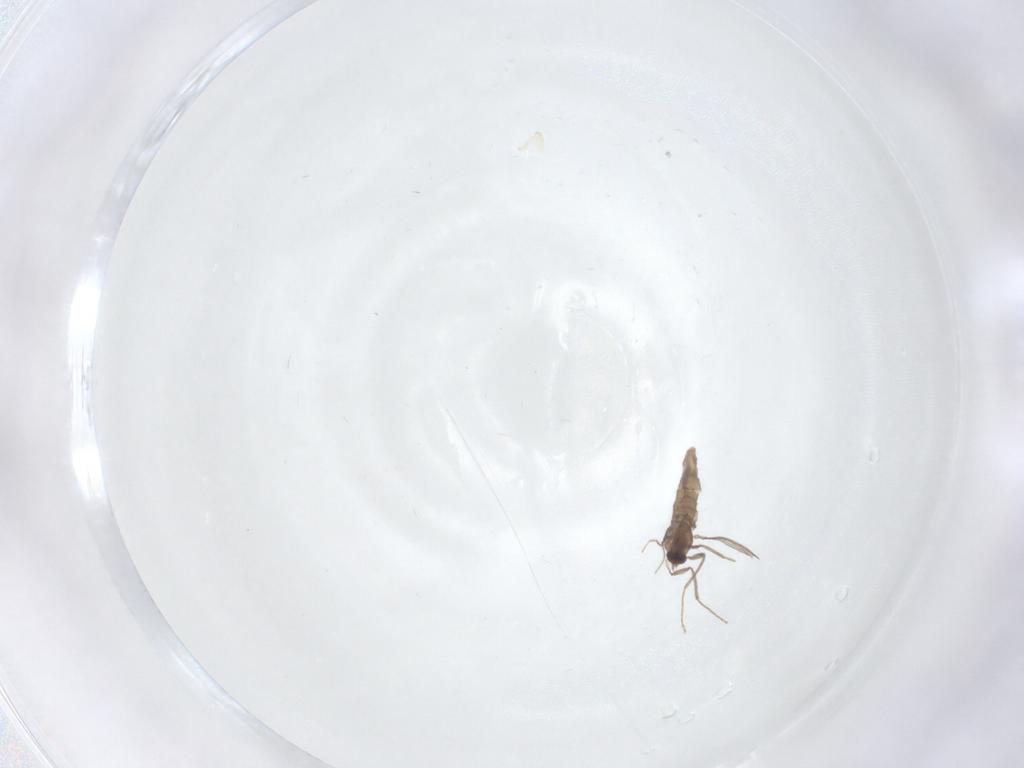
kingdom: Animalia
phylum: Arthropoda
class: Insecta
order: Diptera
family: Chironomidae
